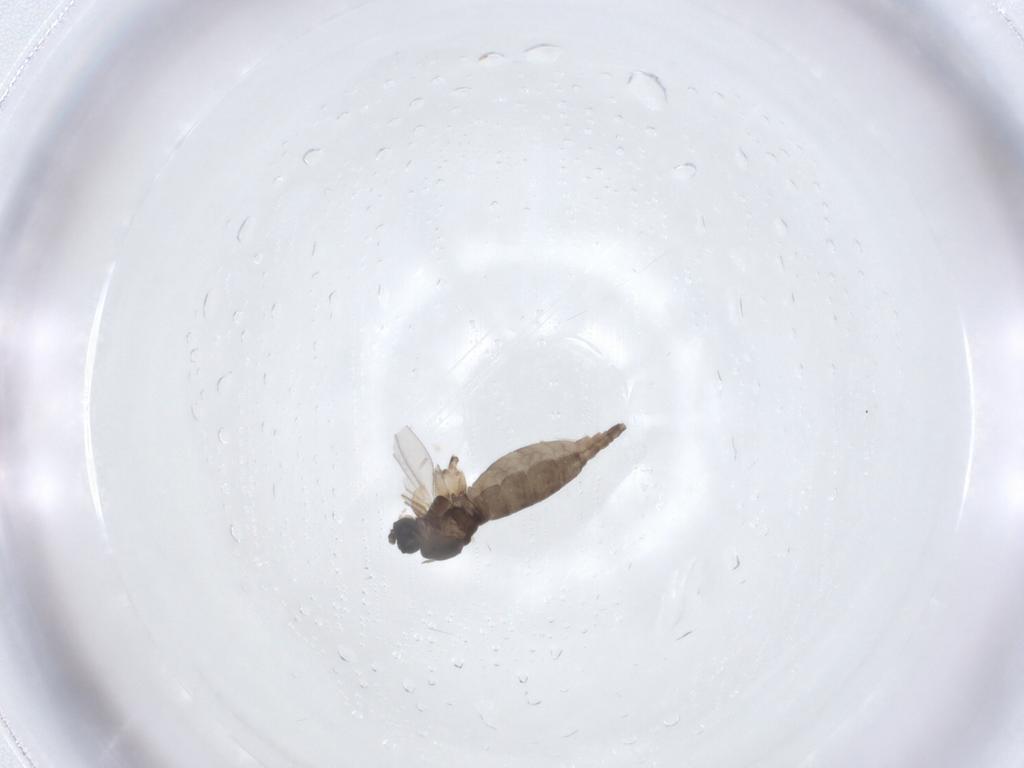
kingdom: Animalia
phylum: Arthropoda
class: Insecta
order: Diptera
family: Sciaridae
